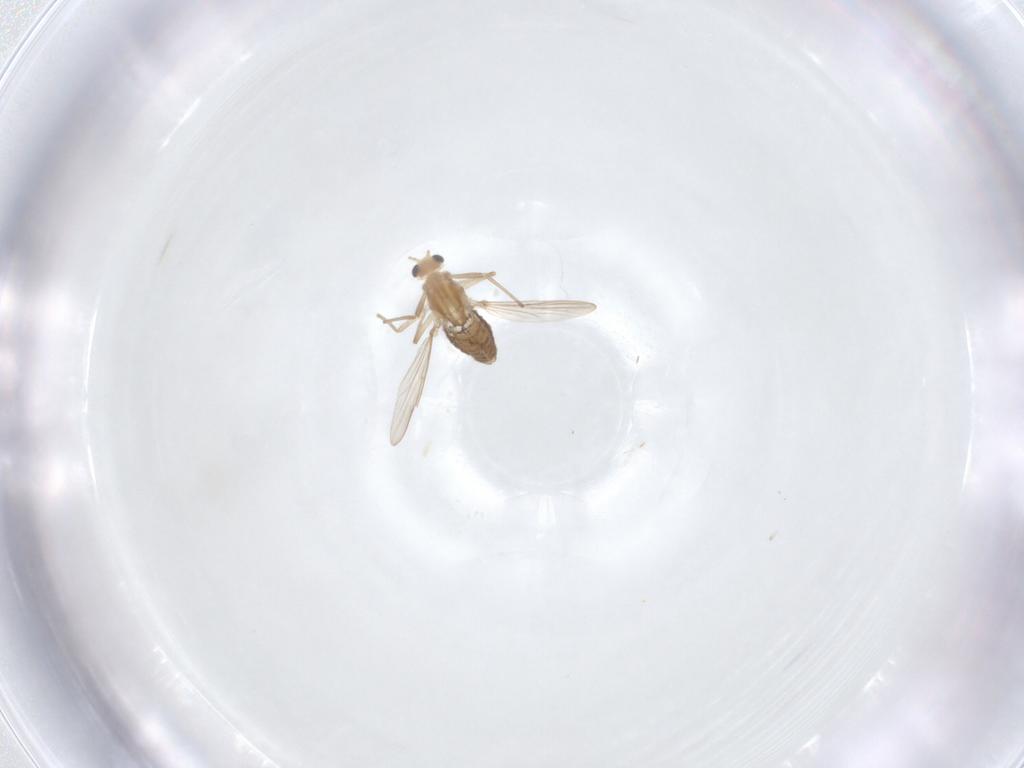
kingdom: Animalia
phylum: Arthropoda
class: Insecta
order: Diptera
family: Chironomidae
